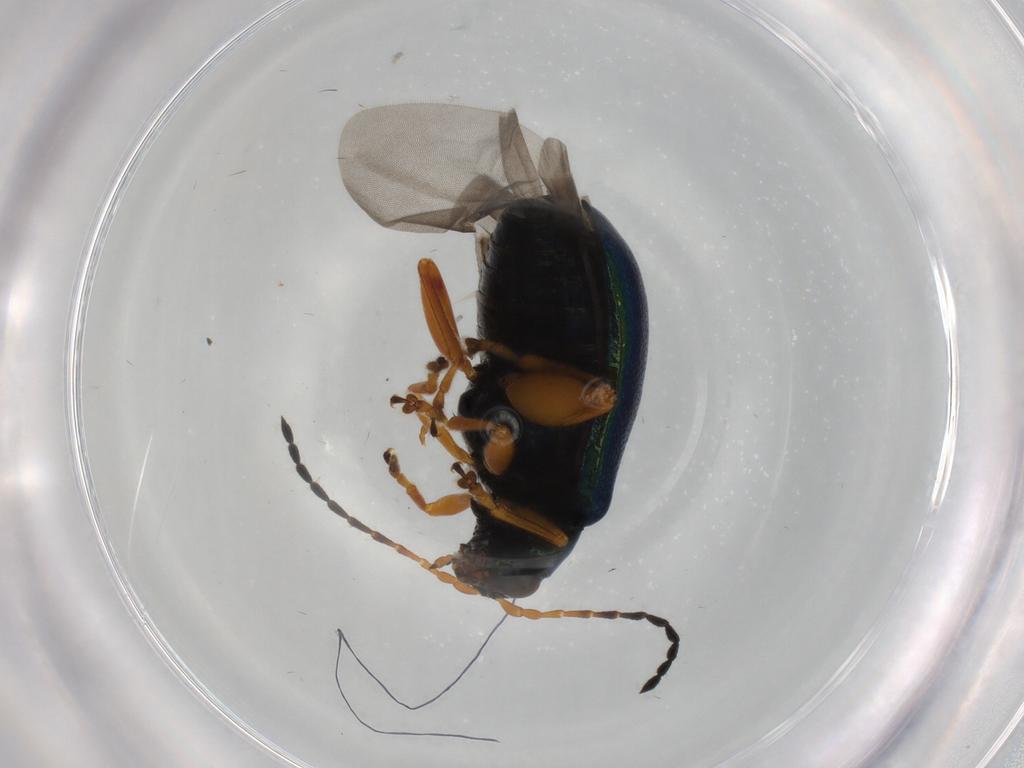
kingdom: Animalia
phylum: Arthropoda
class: Insecta
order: Coleoptera
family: Chrysomelidae
